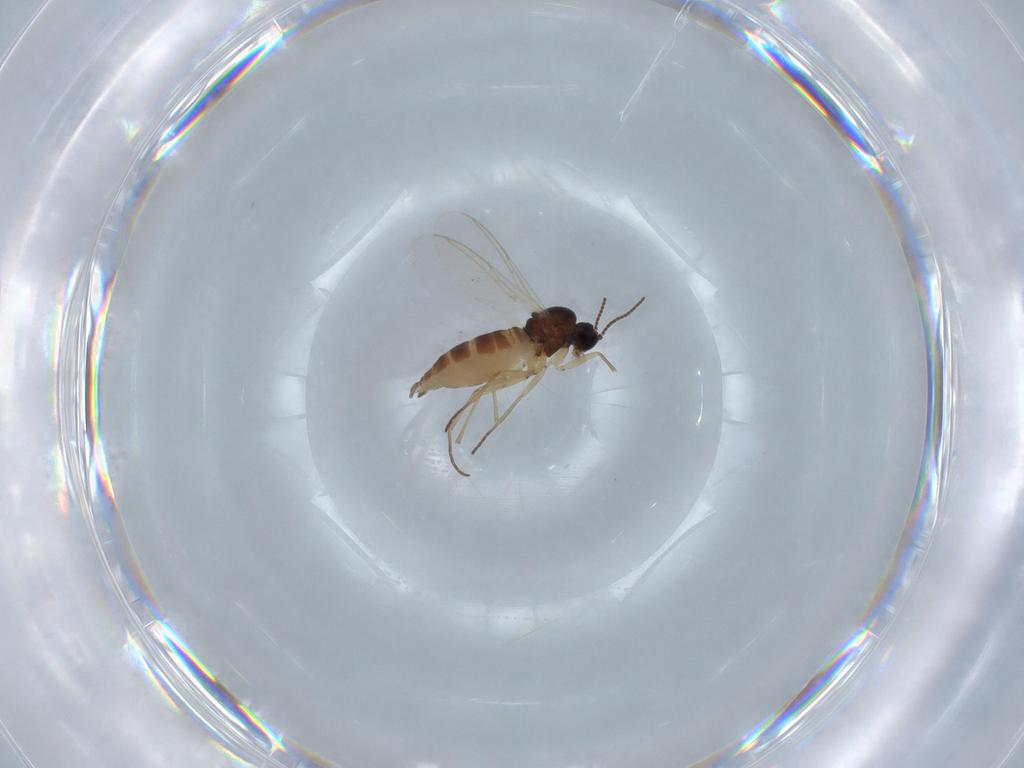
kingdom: Animalia
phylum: Arthropoda
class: Insecta
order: Diptera
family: Sciaridae
